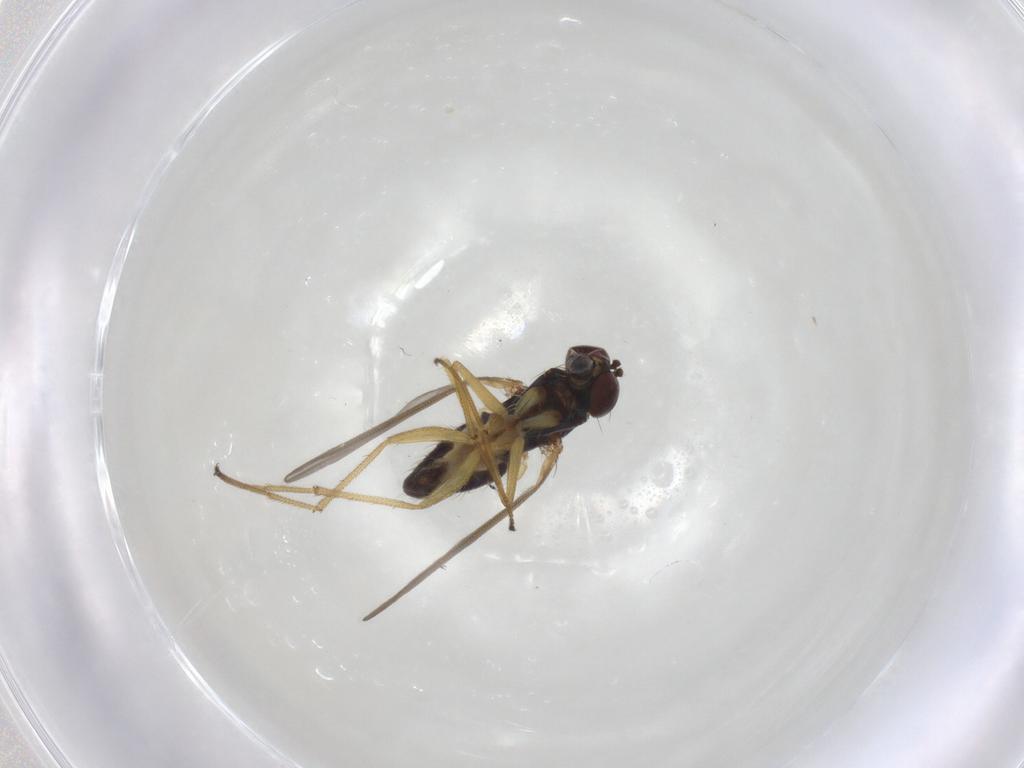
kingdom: Animalia
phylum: Arthropoda
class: Insecta
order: Diptera
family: Dolichopodidae
